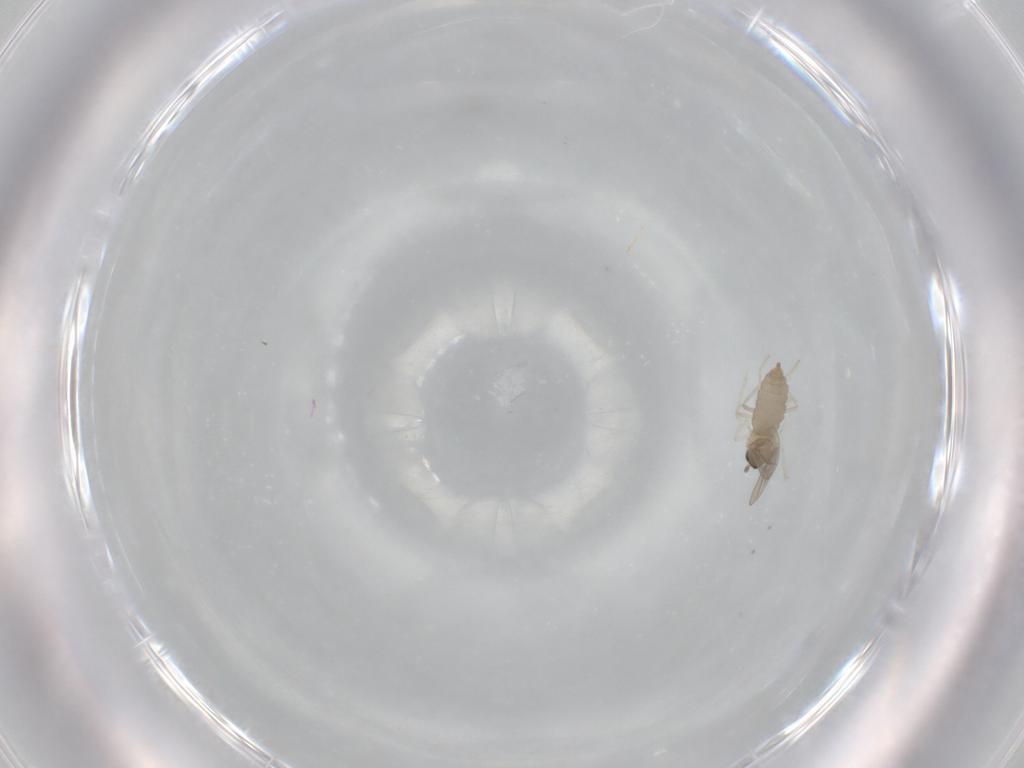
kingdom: Animalia
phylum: Arthropoda
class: Insecta
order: Diptera
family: Cecidomyiidae
